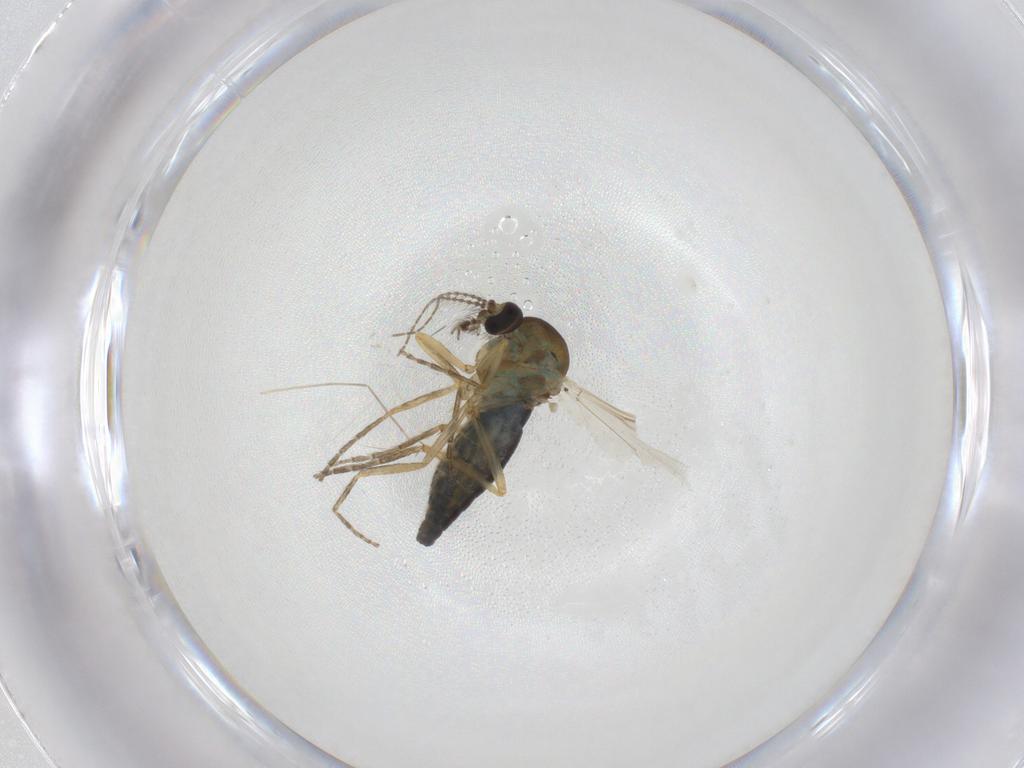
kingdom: Animalia
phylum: Arthropoda
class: Insecta
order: Diptera
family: Ceratopogonidae
